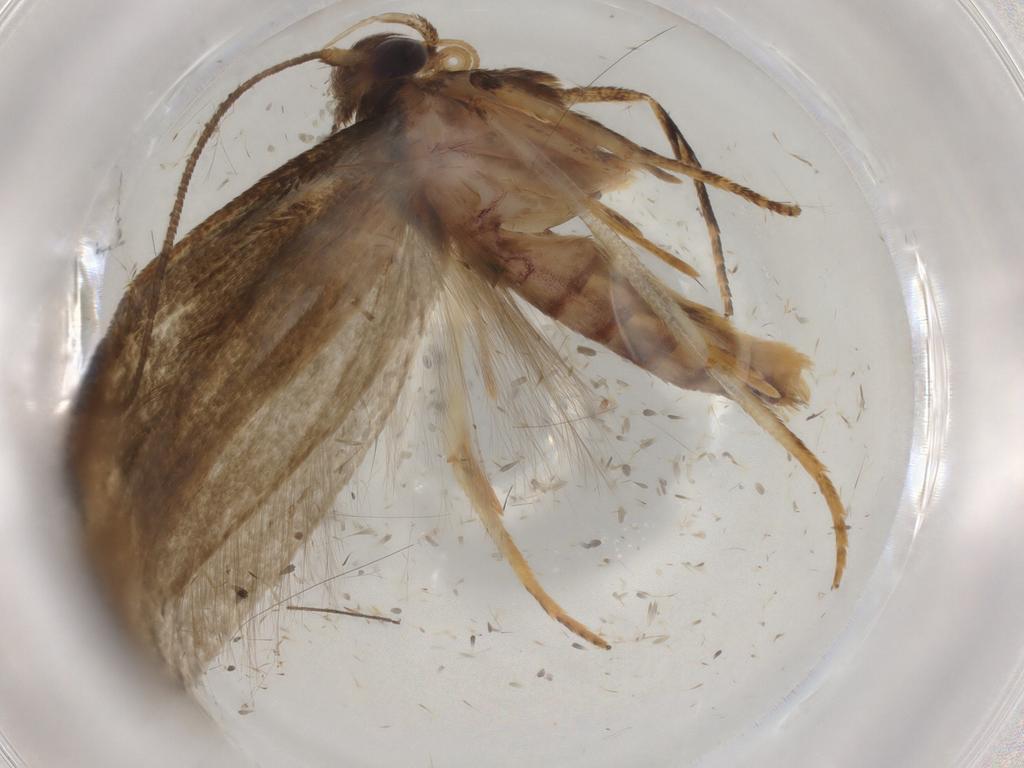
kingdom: Animalia
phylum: Arthropoda
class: Insecta
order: Lepidoptera
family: Blastobasidae
